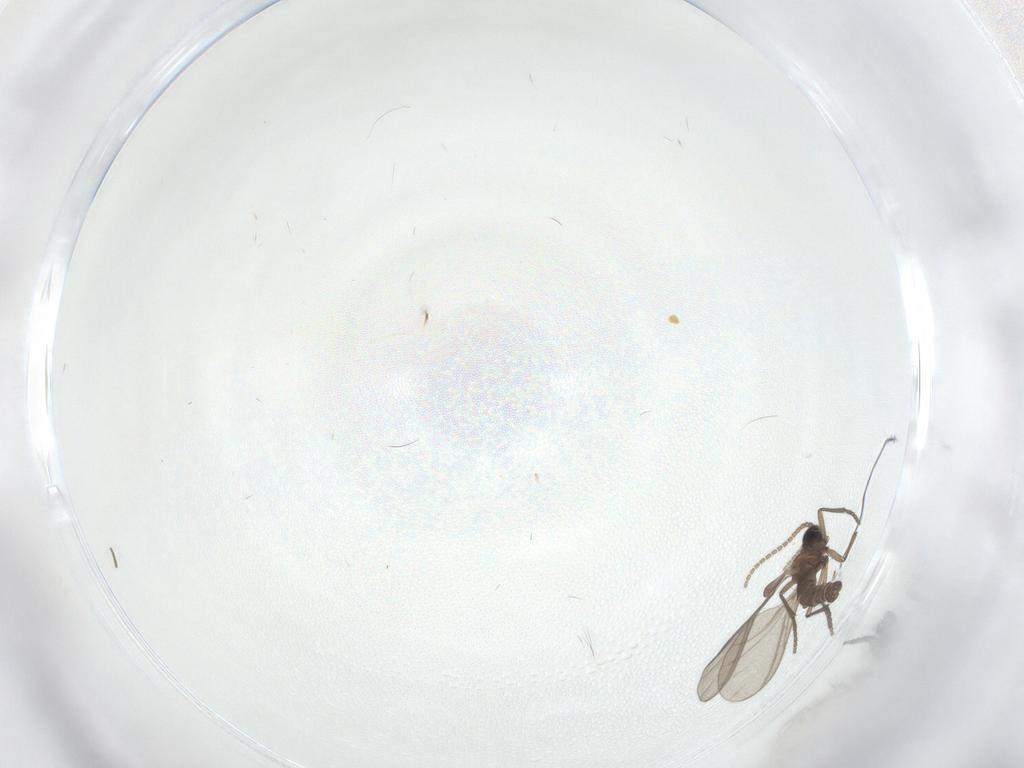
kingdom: Animalia
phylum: Arthropoda
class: Insecta
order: Diptera
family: Sciaridae
